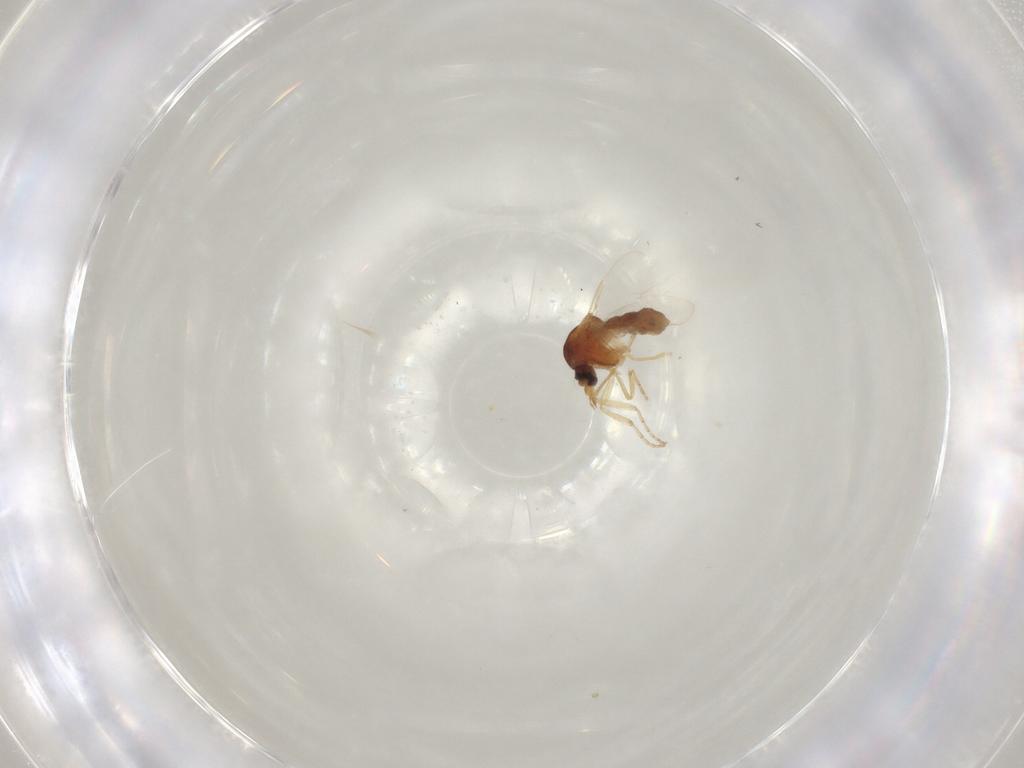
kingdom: Animalia
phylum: Arthropoda
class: Insecta
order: Diptera
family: Ceratopogonidae
